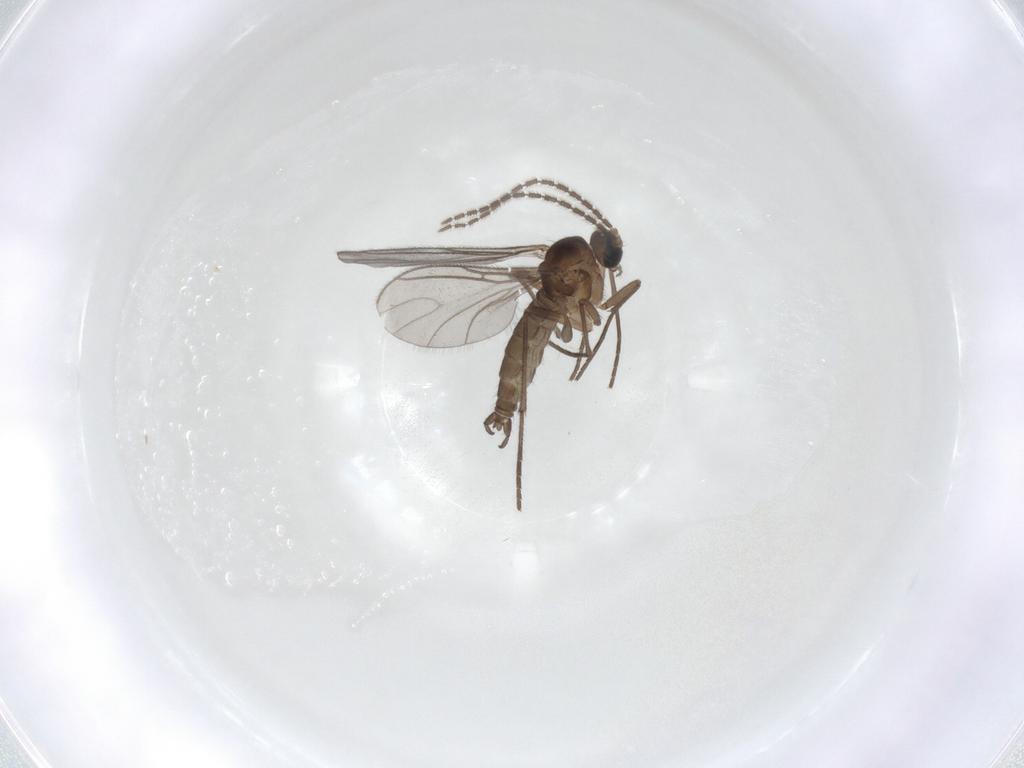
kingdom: Animalia
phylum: Arthropoda
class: Insecta
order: Diptera
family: Sciaridae
